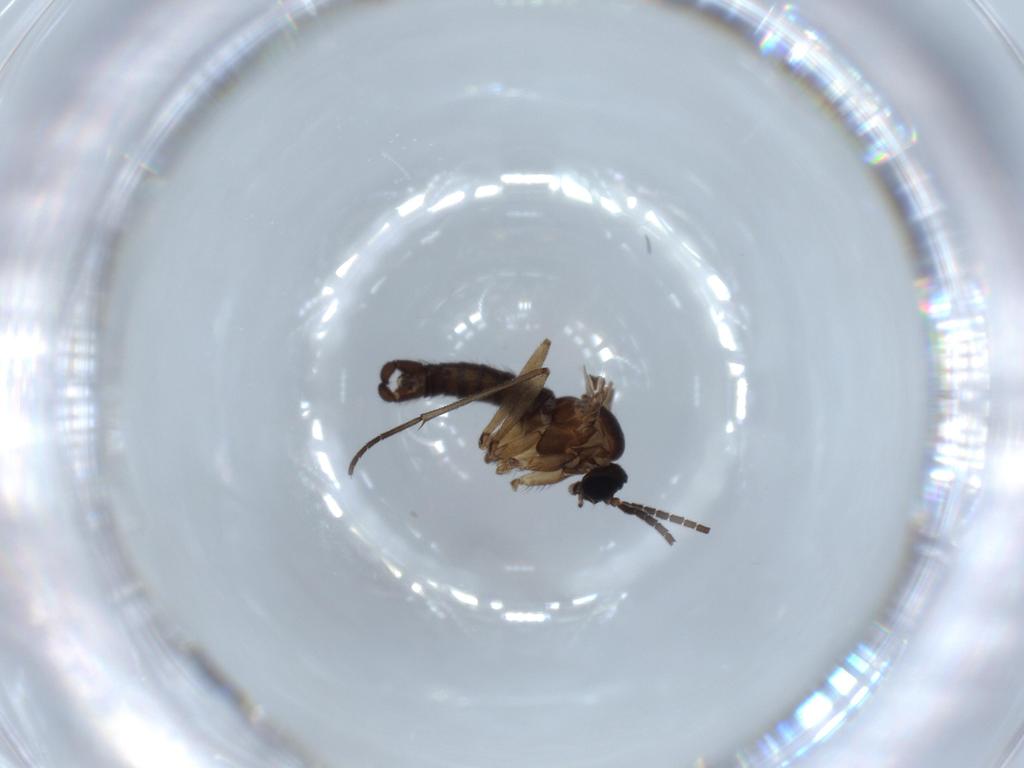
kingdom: Animalia
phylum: Arthropoda
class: Insecta
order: Diptera
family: Sciaridae
